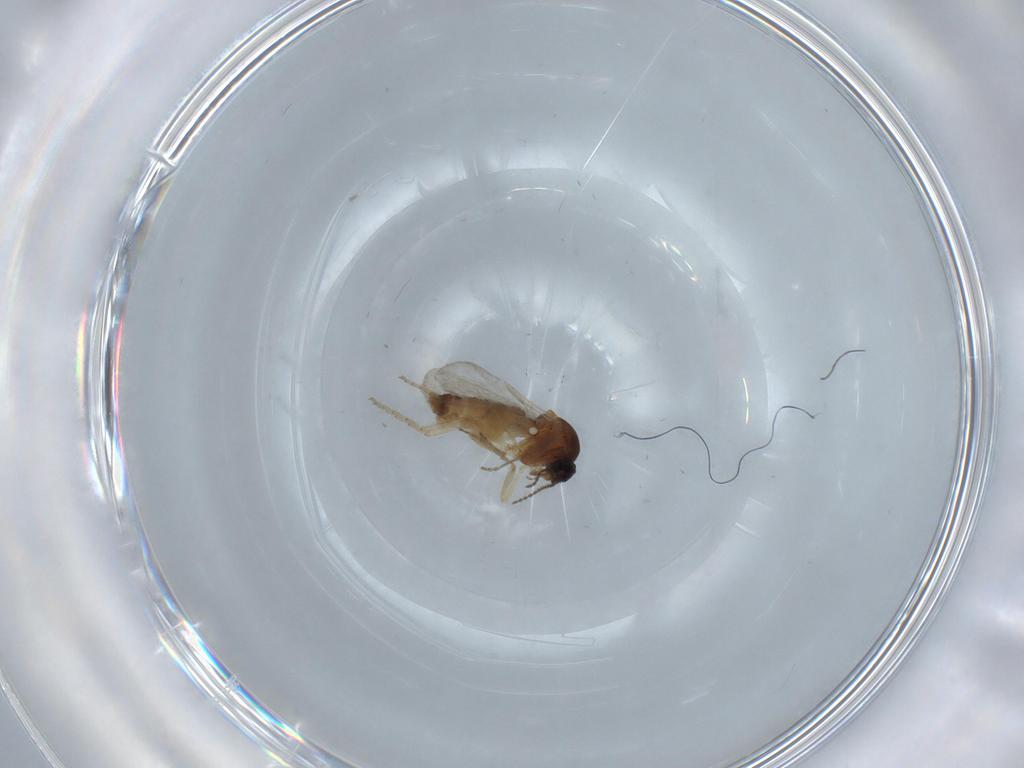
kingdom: Animalia
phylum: Arthropoda
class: Insecta
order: Diptera
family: Ceratopogonidae
